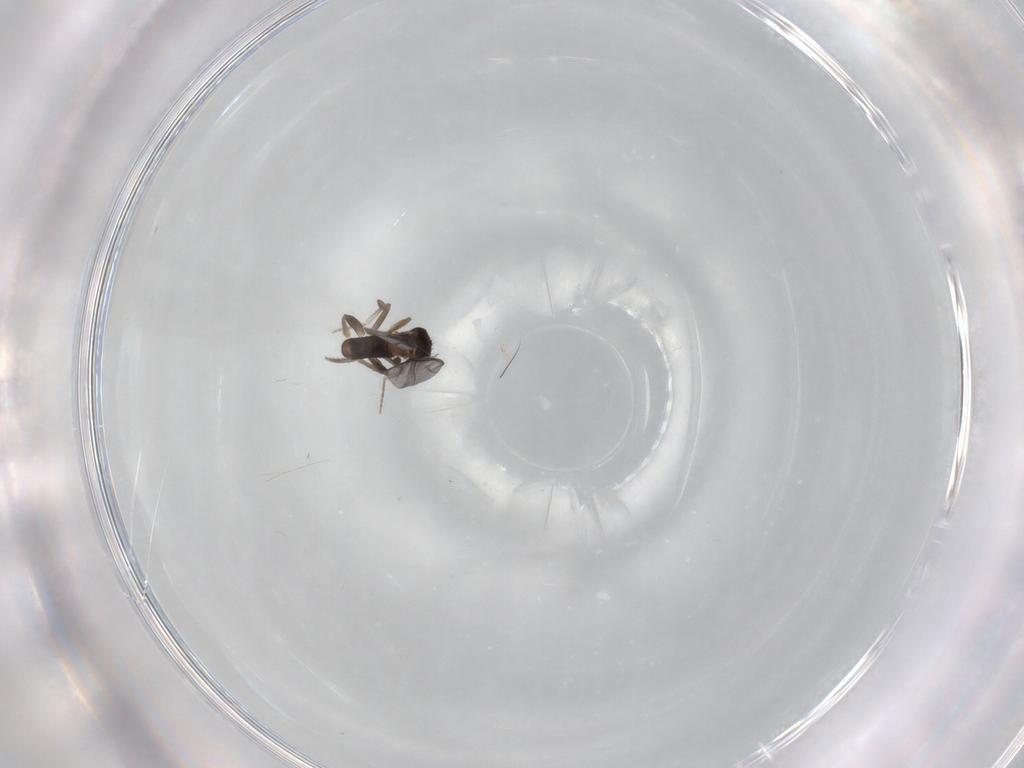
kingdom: Animalia
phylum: Arthropoda
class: Insecta
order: Diptera
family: Phoridae
